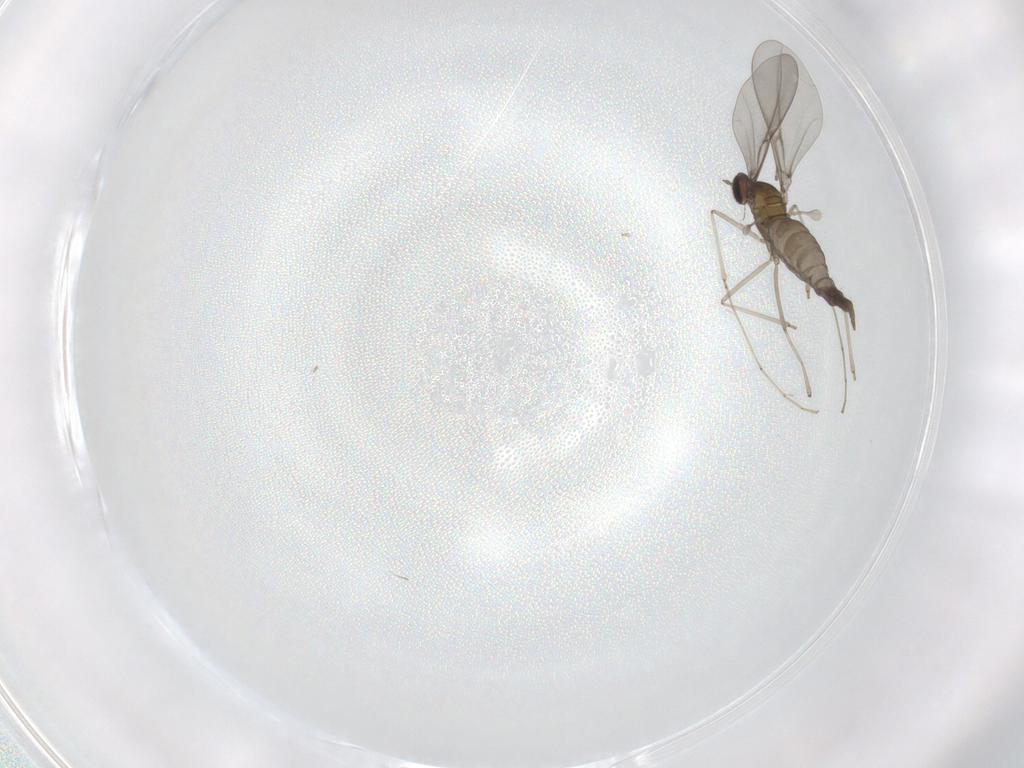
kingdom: Animalia
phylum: Arthropoda
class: Insecta
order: Diptera
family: Cecidomyiidae
